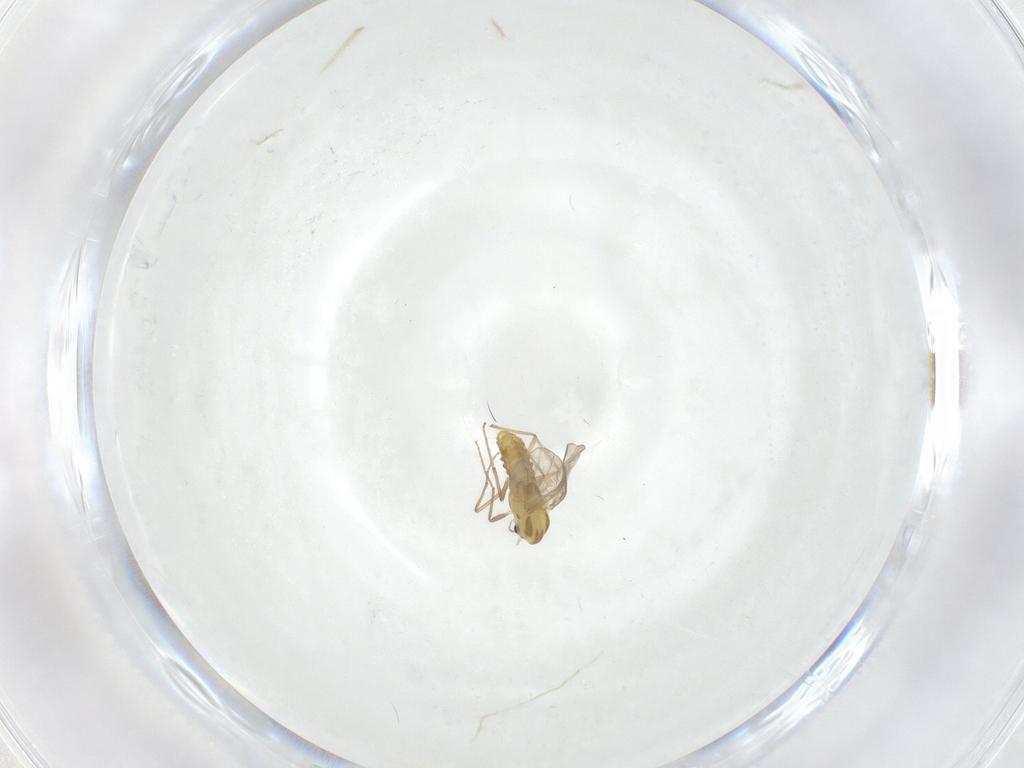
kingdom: Animalia
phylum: Arthropoda
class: Insecta
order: Diptera
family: Chironomidae
